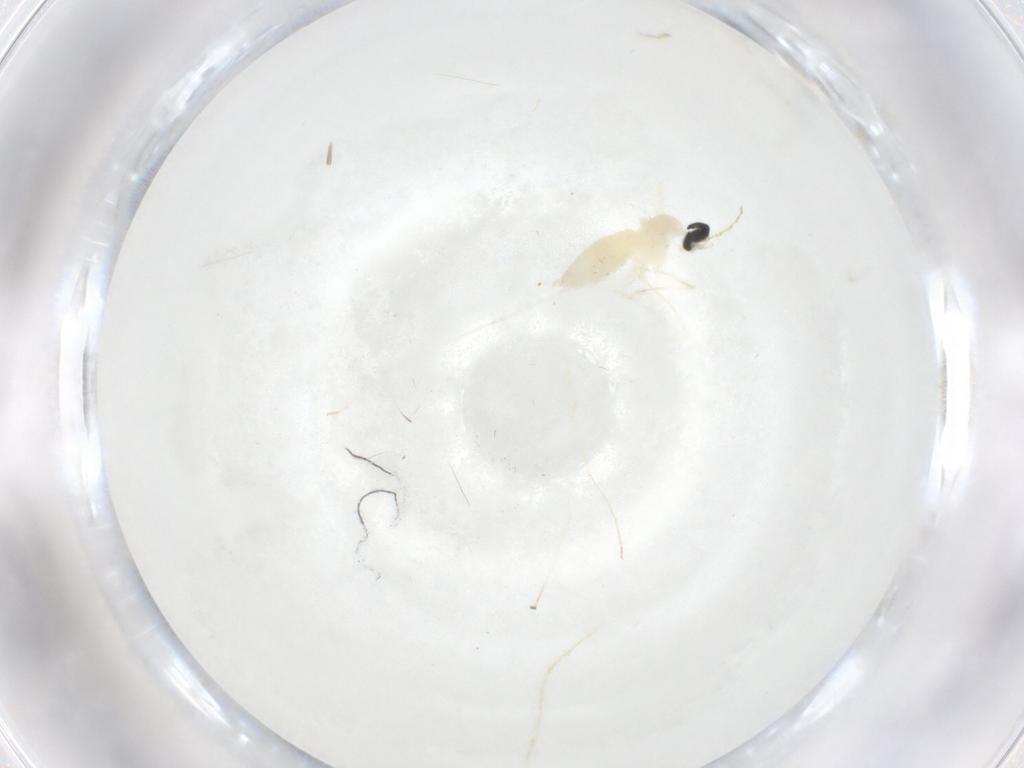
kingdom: Animalia
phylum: Arthropoda
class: Insecta
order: Diptera
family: Cecidomyiidae
